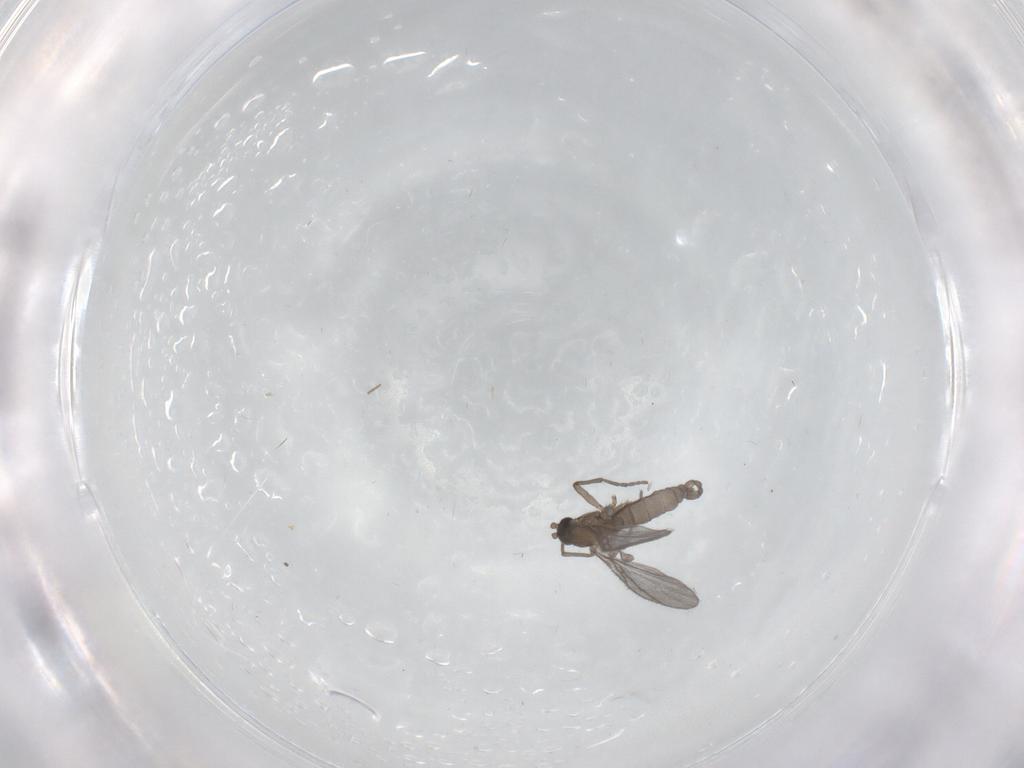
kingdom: Animalia
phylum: Arthropoda
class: Insecta
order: Diptera
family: Sciaridae
